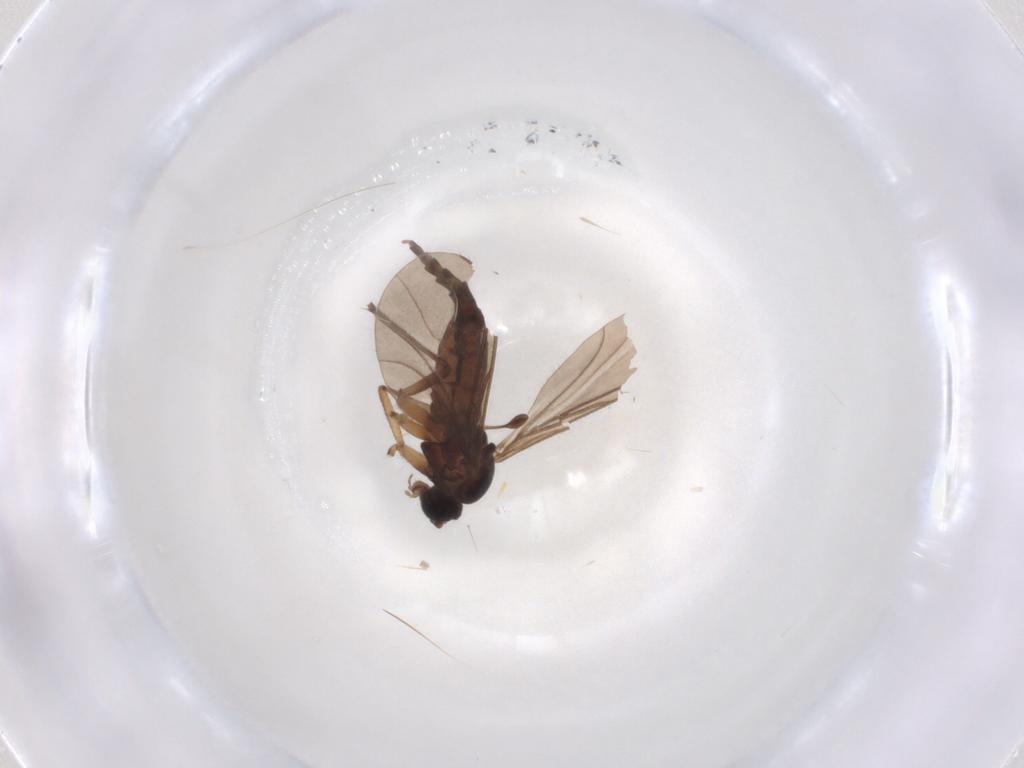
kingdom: Animalia
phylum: Arthropoda
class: Insecta
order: Diptera
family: Sciaridae
